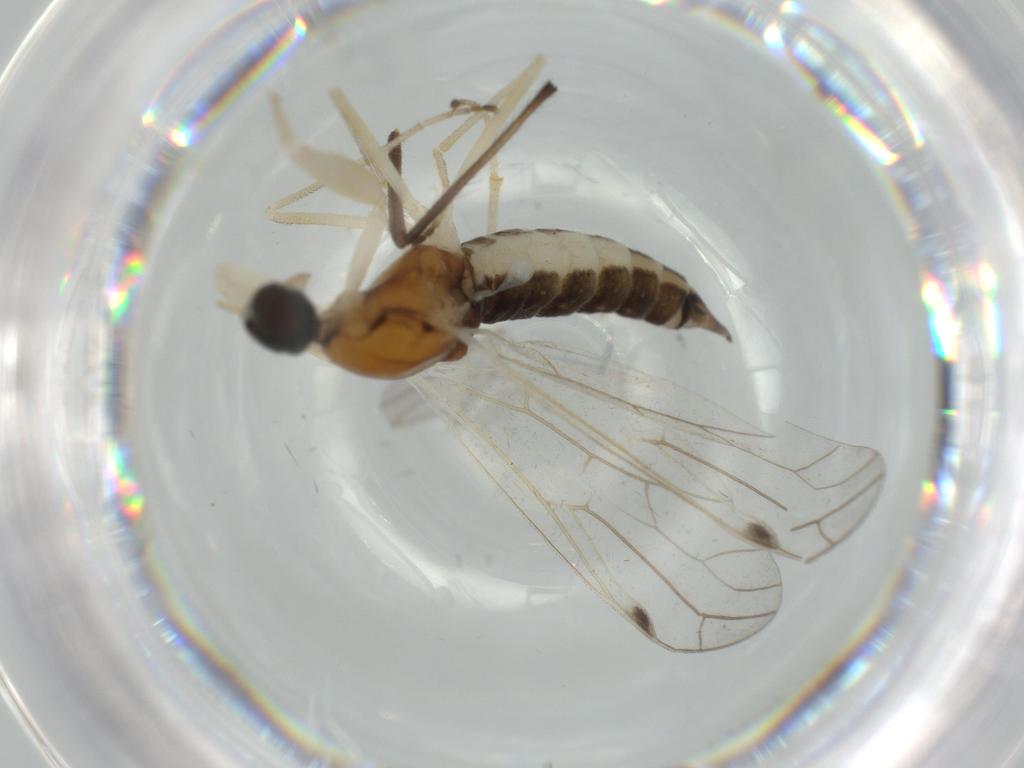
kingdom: Animalia
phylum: Arthropoda
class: Insecta
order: Diptera
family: Chironomidae
